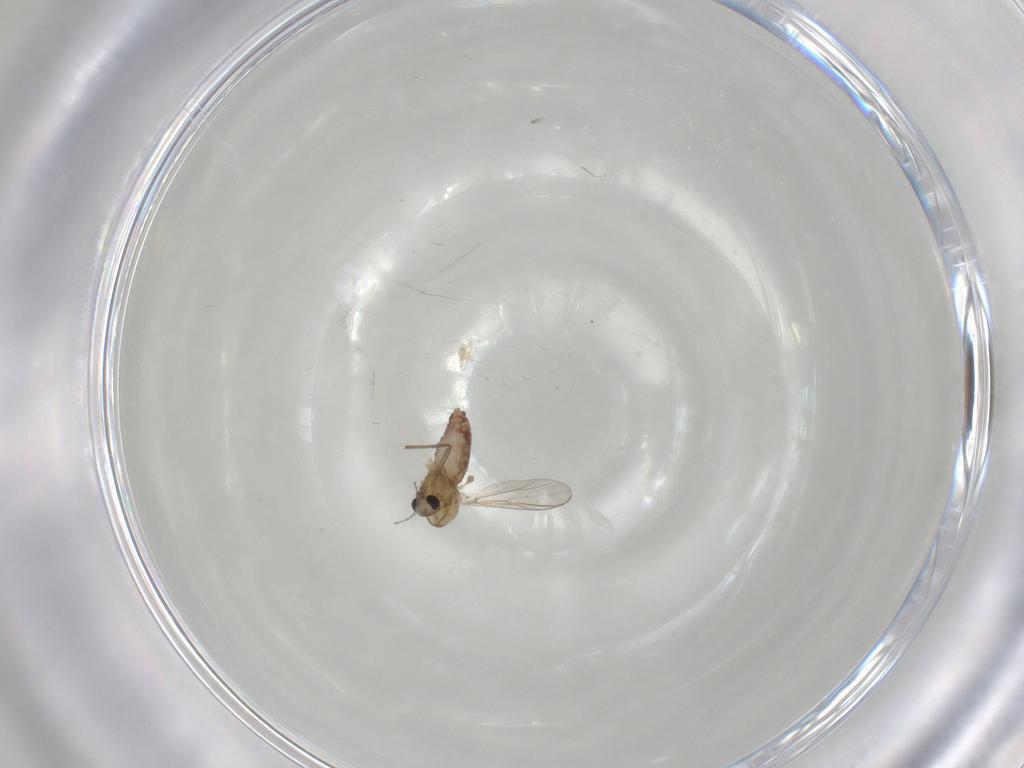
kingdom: Animalia
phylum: Arthropoda
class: Insecta
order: Diptera
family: Chironomidae
